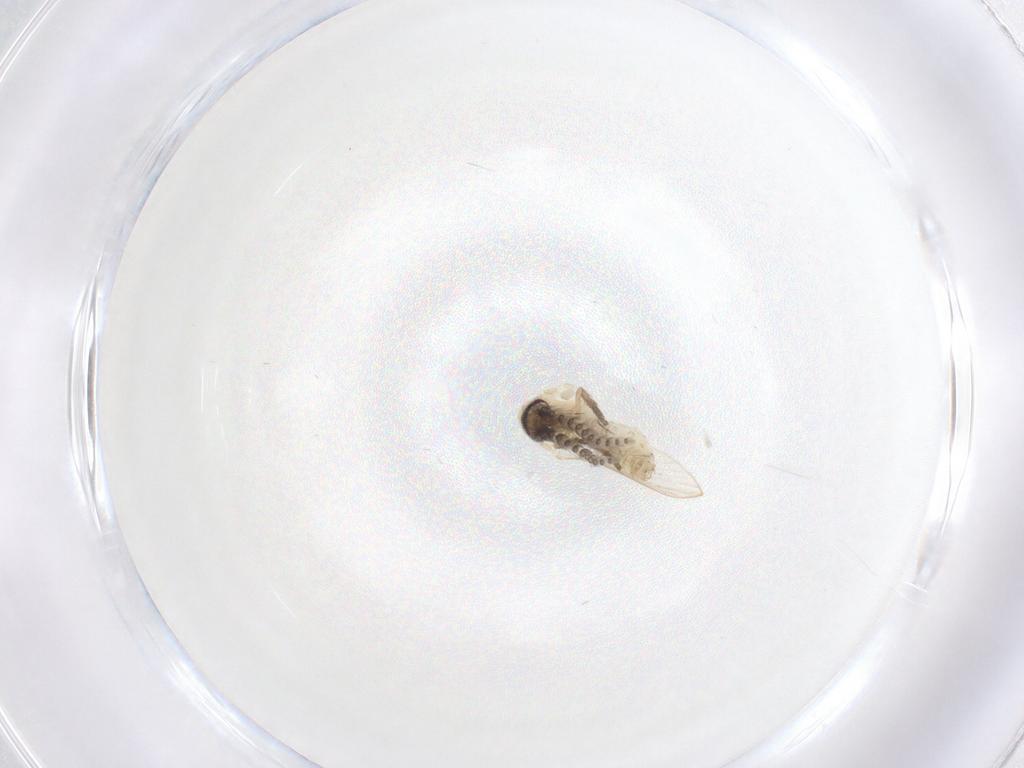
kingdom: Animalia
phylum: Arthropoda
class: Insecta
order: Diptera
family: Psychodidae
